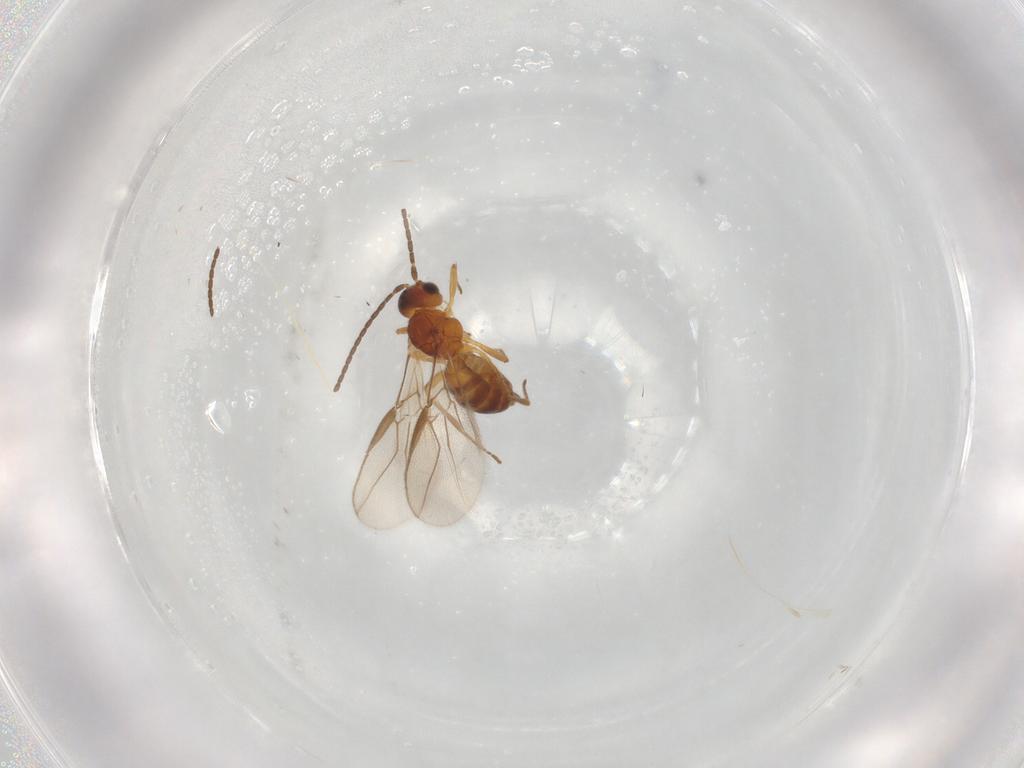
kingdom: Animalia
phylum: Arthropoda
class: Insecta
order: Hymenoptera
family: Braconidae
